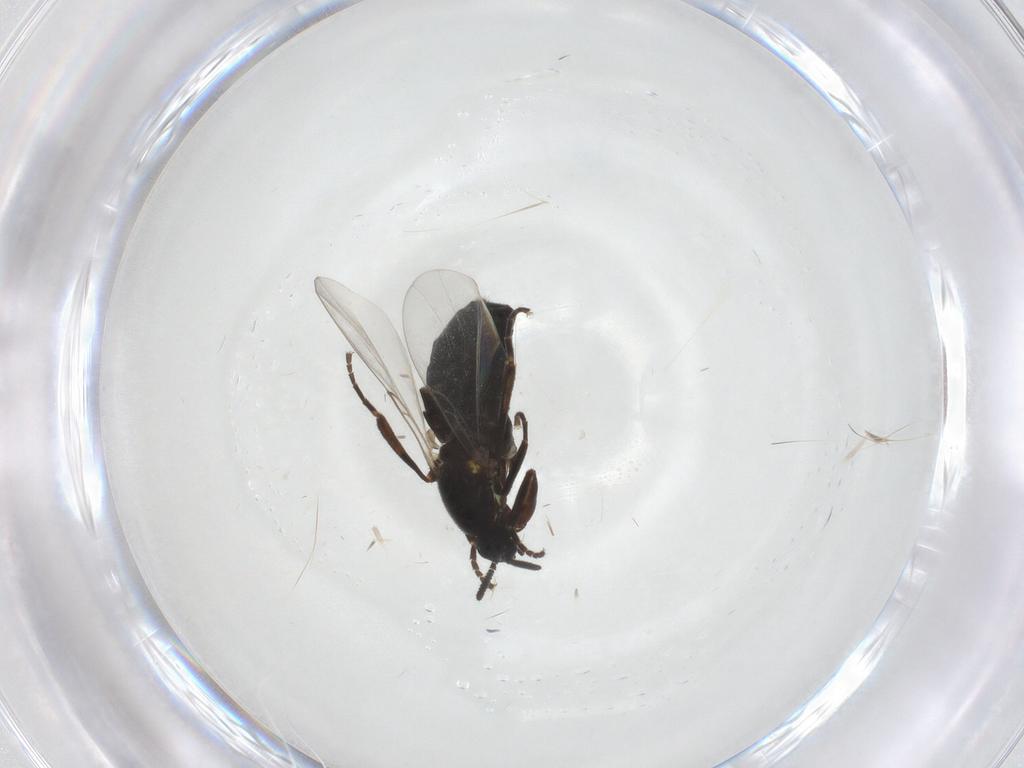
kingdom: Animalia
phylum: Arthropoda
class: Insecta
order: Diptera
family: Scatopsidae
